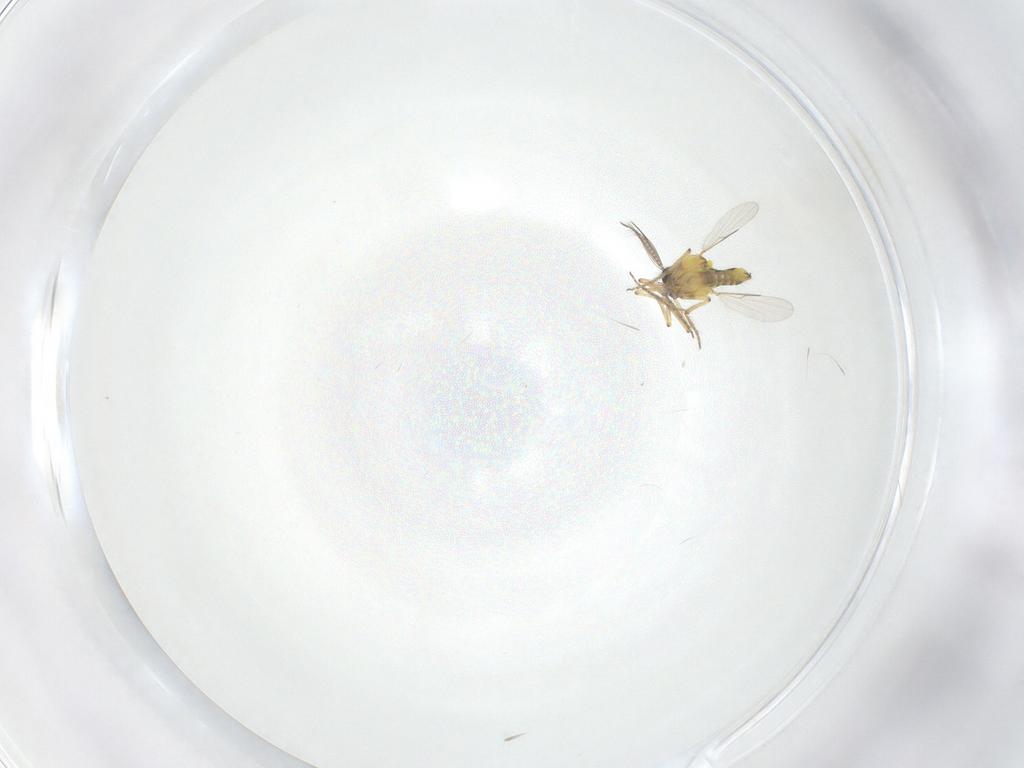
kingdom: Animalia
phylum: Arthropoda
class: Insecta
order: Diptera
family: Ceratopogonidae
